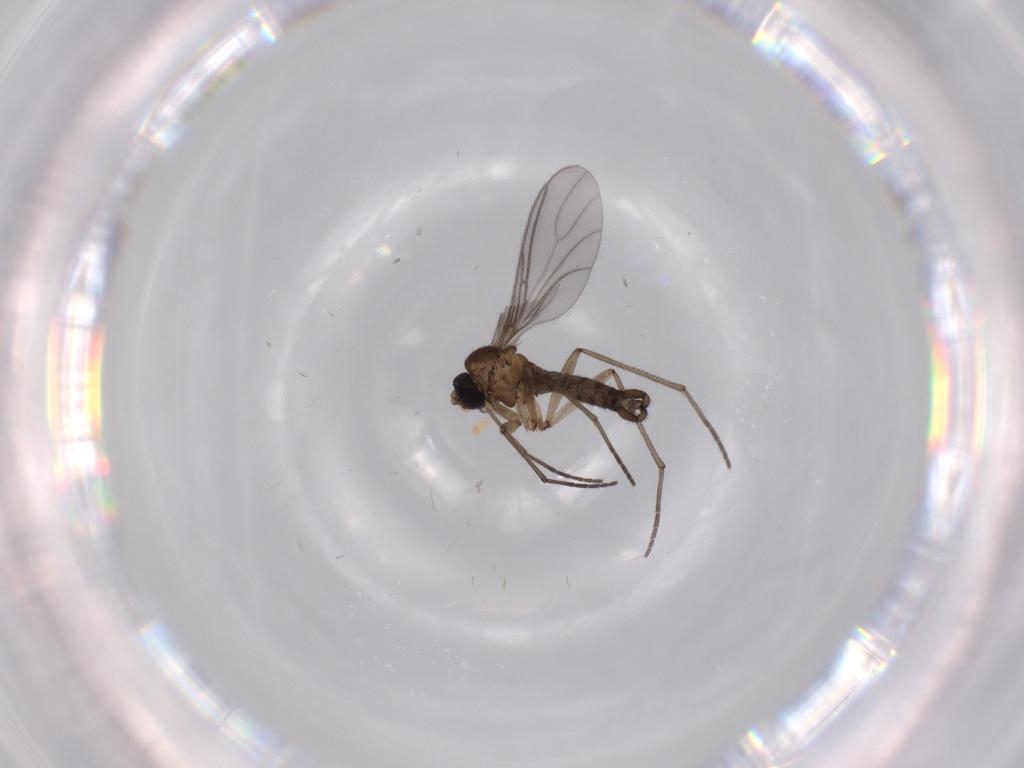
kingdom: Animalia
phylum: Arthropoda
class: Insecta
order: Diptera
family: Sciaridae
